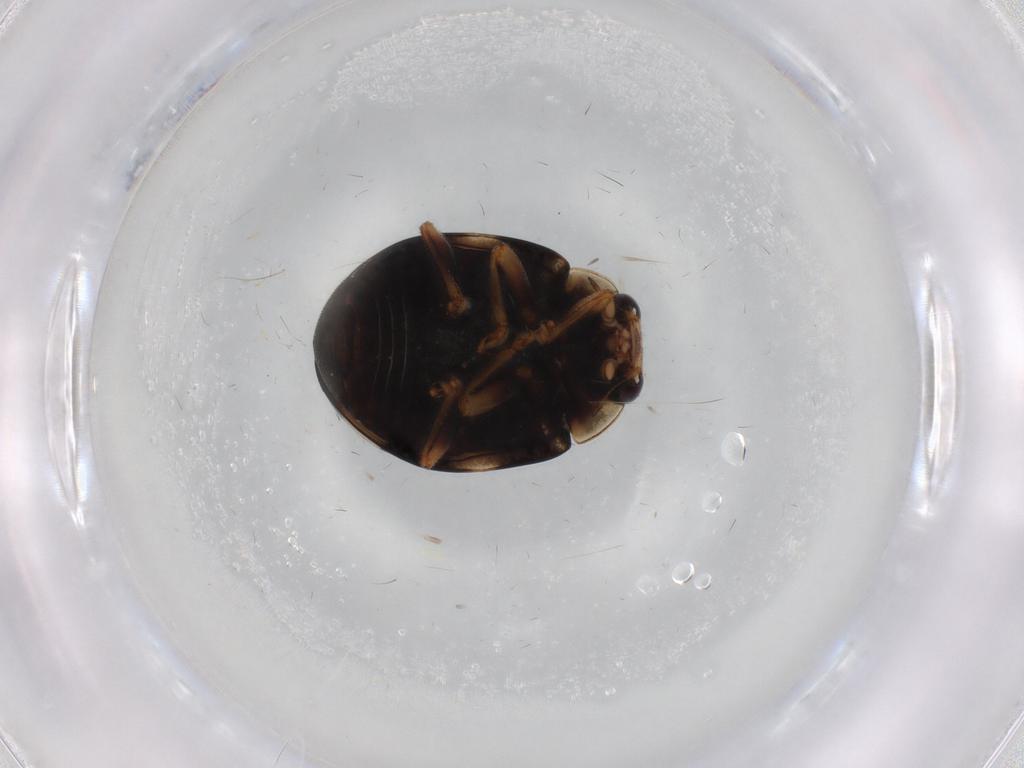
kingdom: Animalia
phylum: Arthropoda
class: Insecta
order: Coleoptera
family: Coccinellidae
